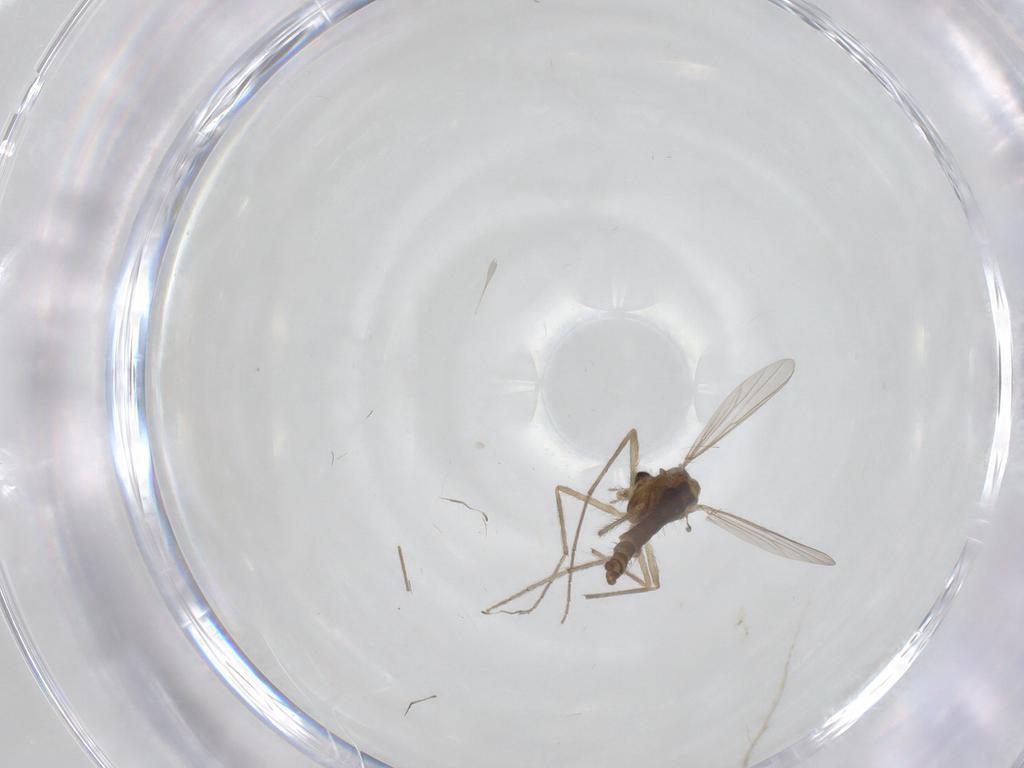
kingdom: Animalia
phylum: Arthropoda
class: Insecta
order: Diptera
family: Chironomidae
